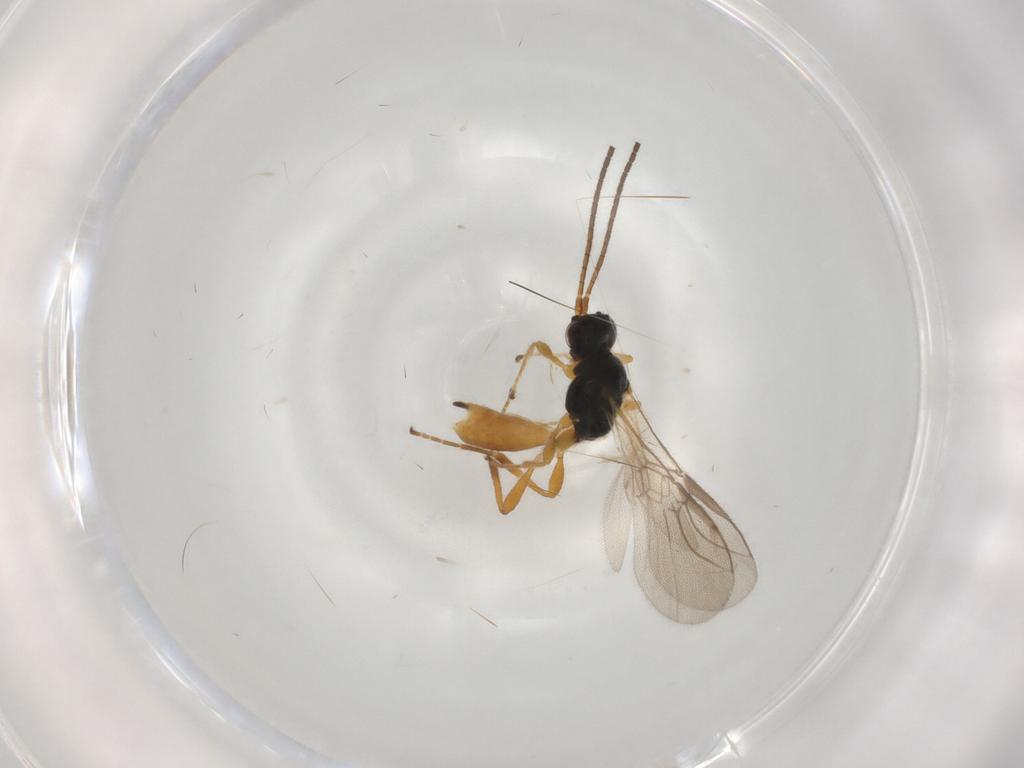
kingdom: Animalia
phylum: Arthropoda
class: Insecta
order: Hymenoptera
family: Braconidae
